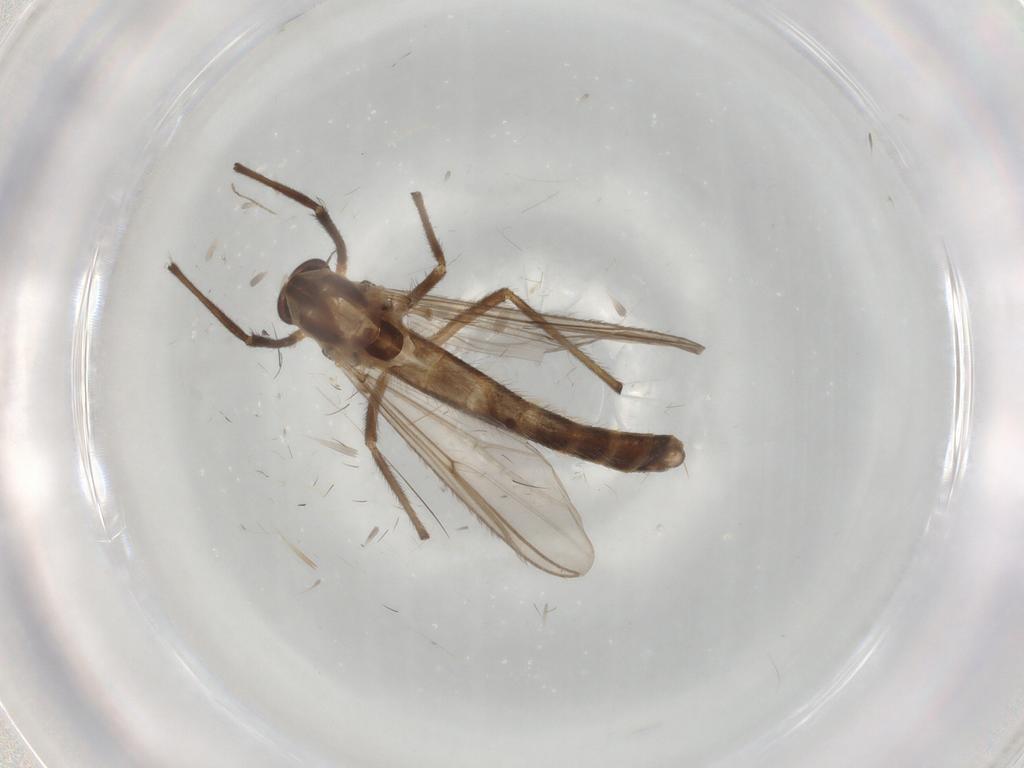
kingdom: Animalia
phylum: Arthropoda
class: Insecta
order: Diptera
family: Chironomidae
